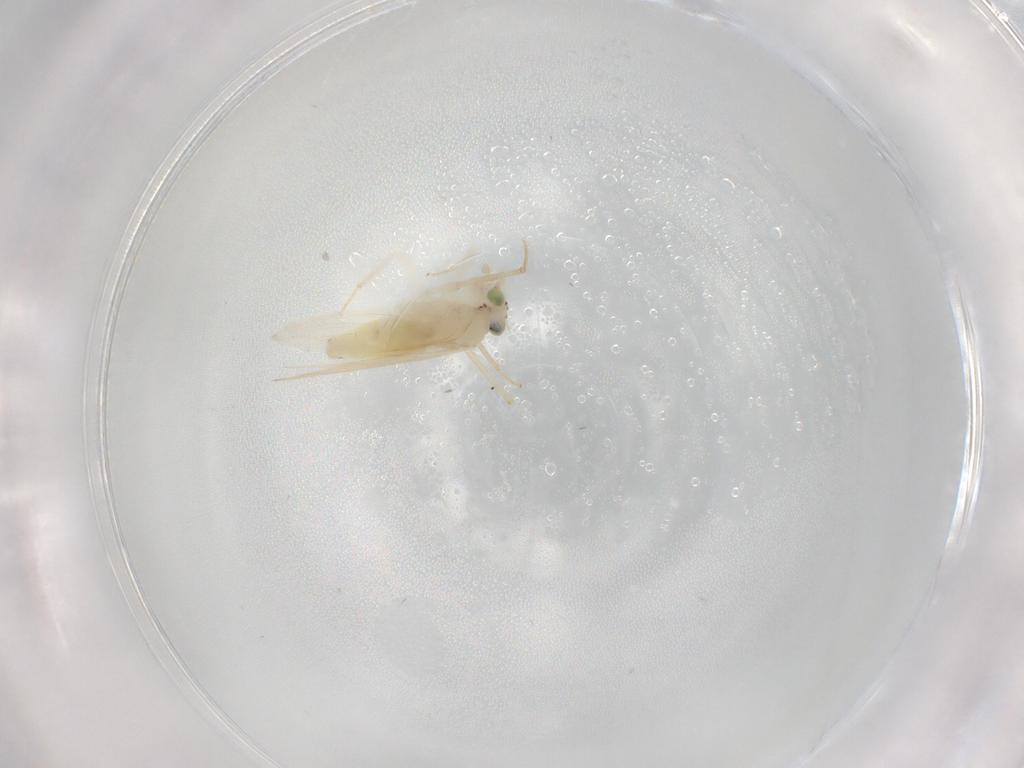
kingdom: Animalia
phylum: Arthropoda
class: Insecta
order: Psocodea
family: Lepidopsocidae
